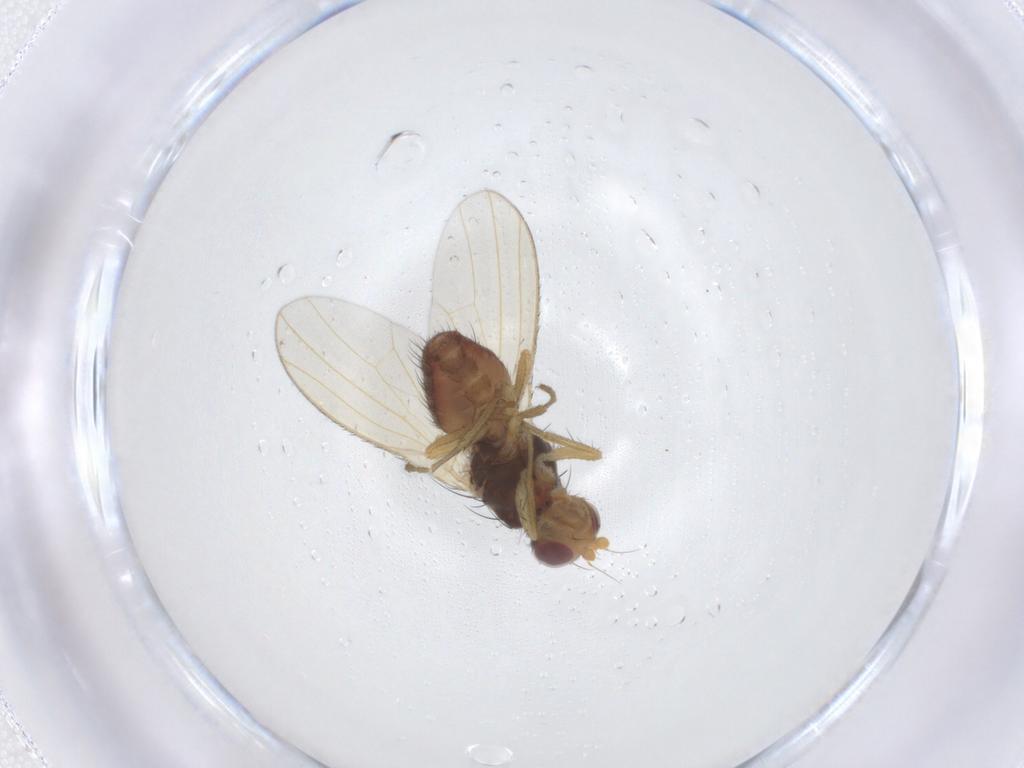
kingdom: Animalia
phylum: Arthropoda
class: Insecta
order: Diptera
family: Heleomyzidae
